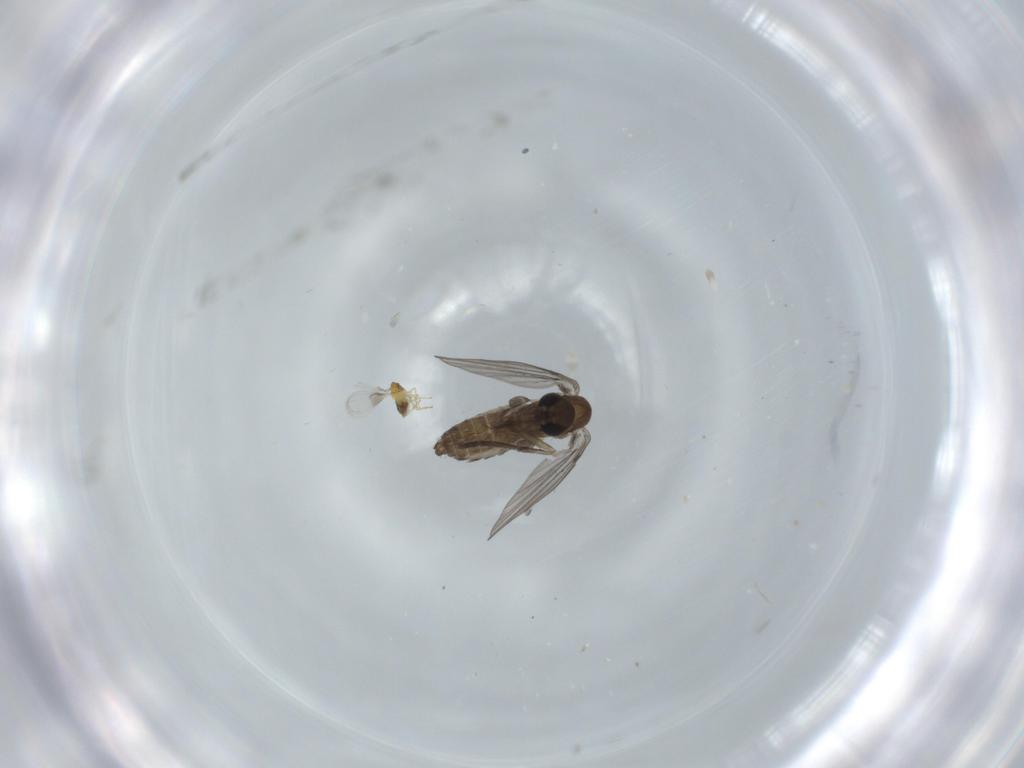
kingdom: Animalia
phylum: Arthropoda
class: Insecta
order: Hymenoptera
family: Trichogrammatidae
